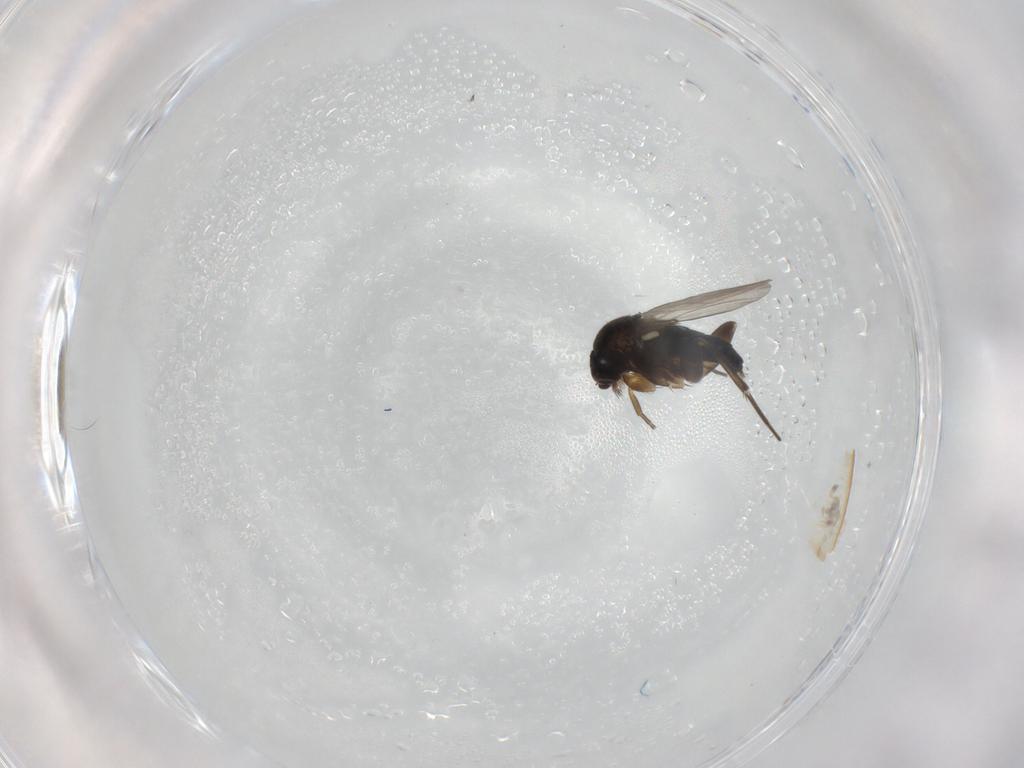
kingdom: Animalia
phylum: Arthropoda
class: Insecta
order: Diptera
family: Phoridae
